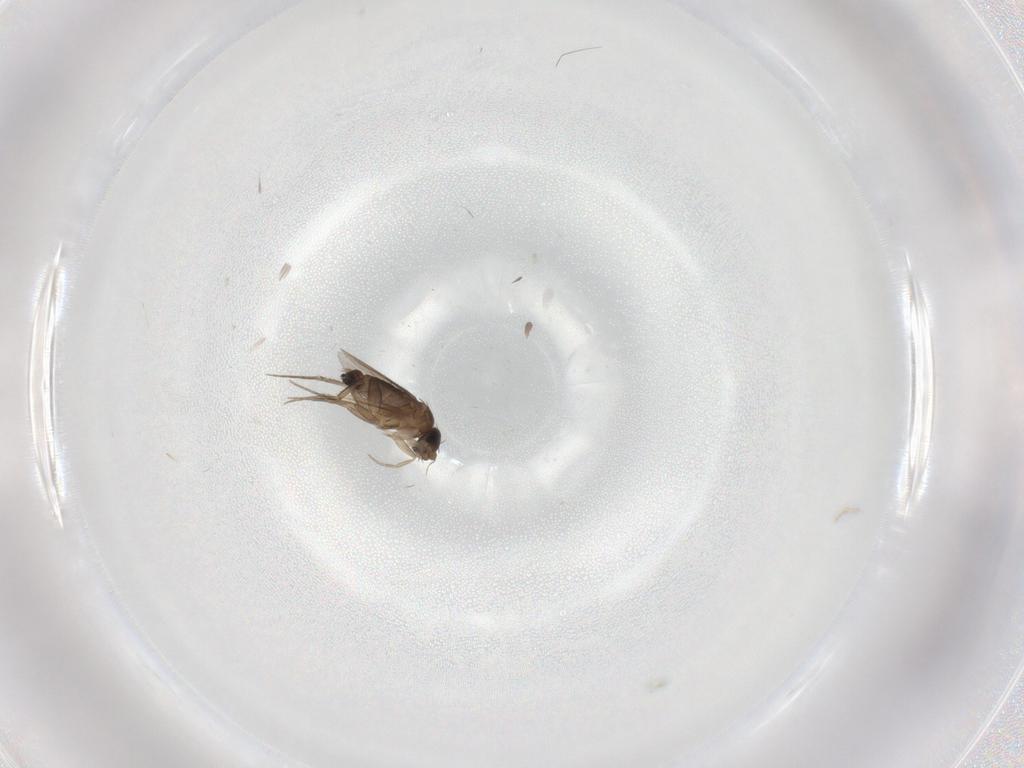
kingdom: Animalia
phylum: Arthropoda
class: Insecta
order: Diptera
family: Phoridae
